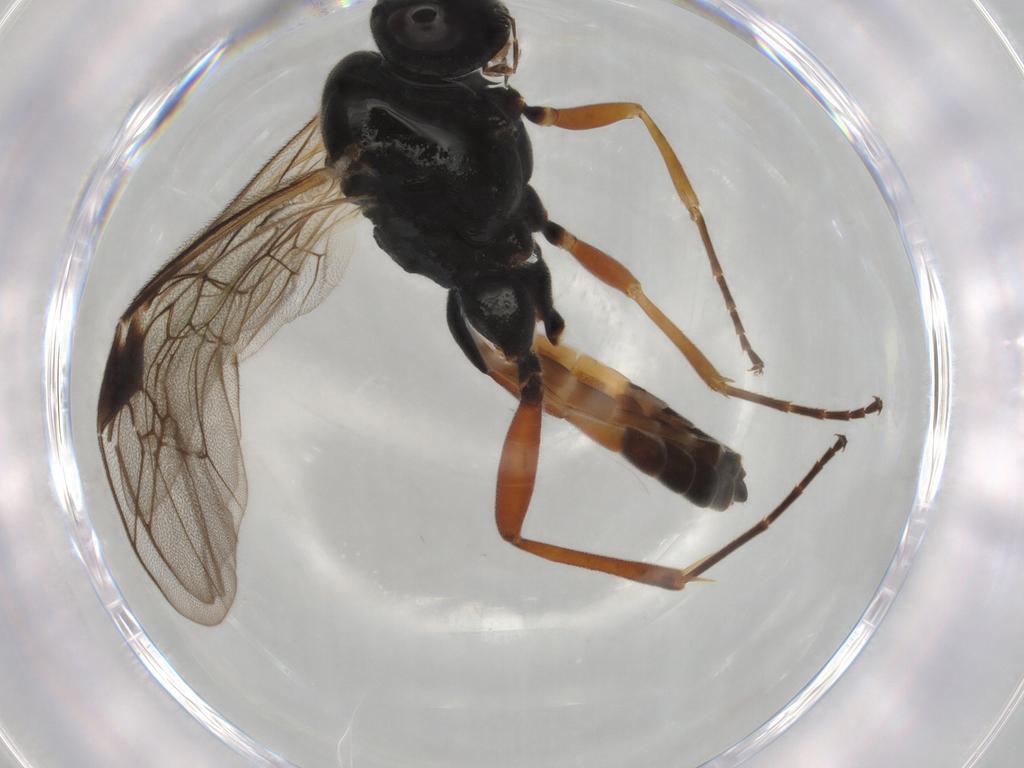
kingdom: Animalia
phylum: Arthropoda
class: Insecta
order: Hymenoptera
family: Formicidae
